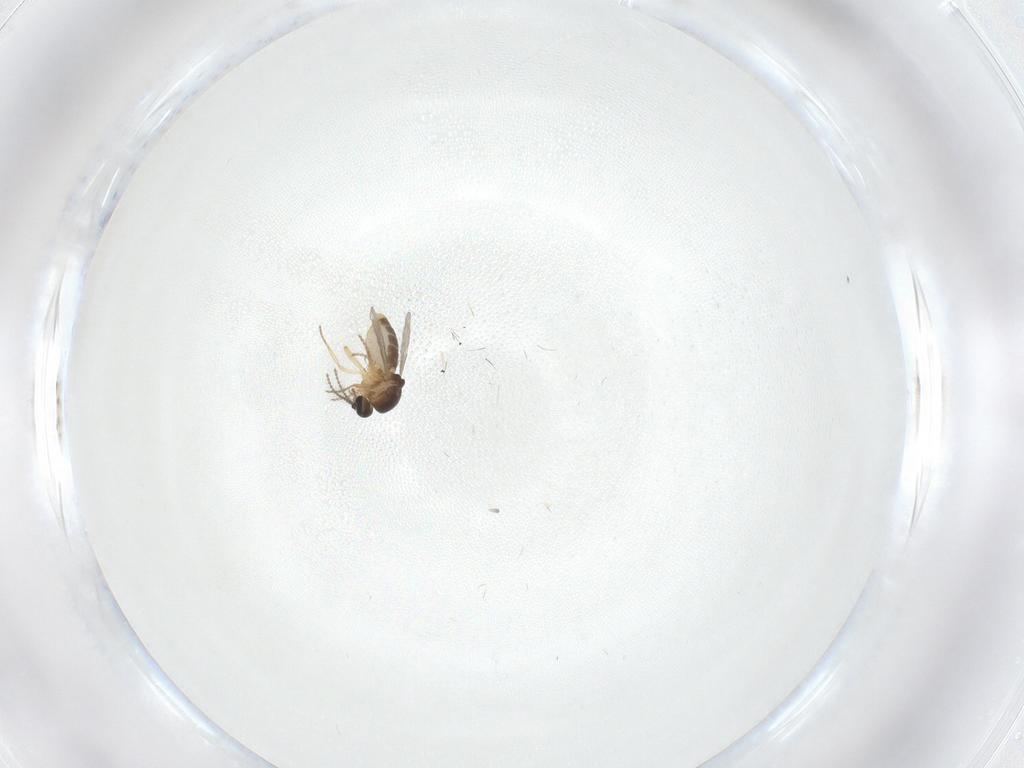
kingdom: Animalia
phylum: Arthropoda
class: Insecta
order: Diptera
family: Ceratopogonidae
